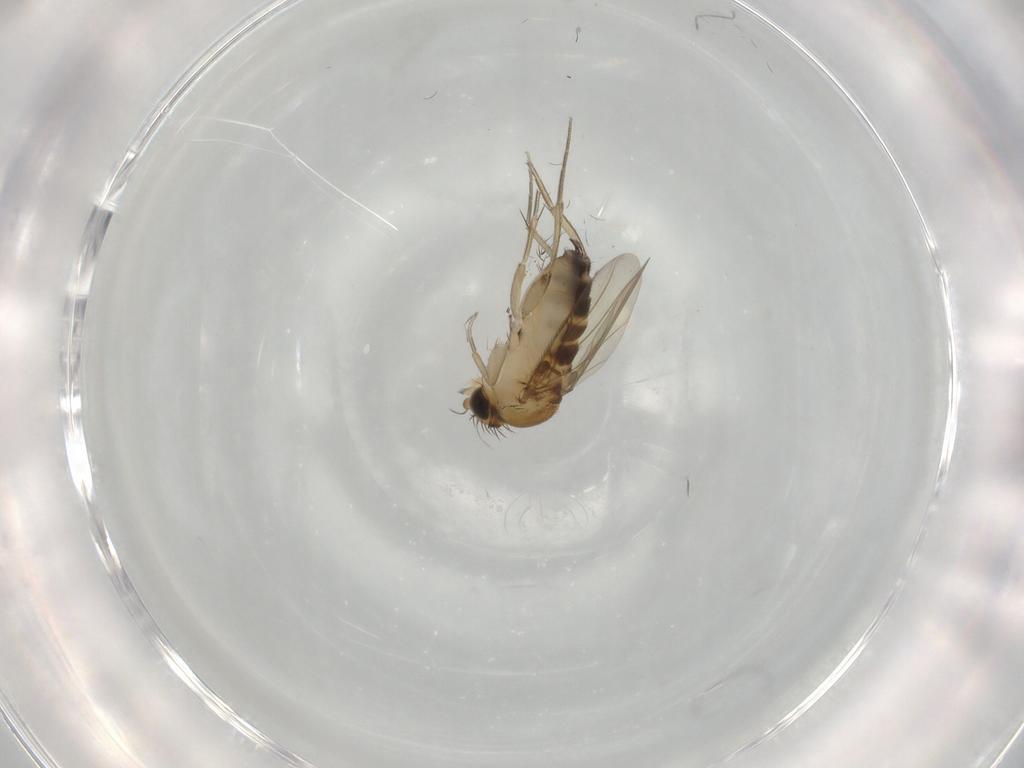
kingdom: Animalia
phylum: Arthropoda
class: Insecta
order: Diptera
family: Phoridae
